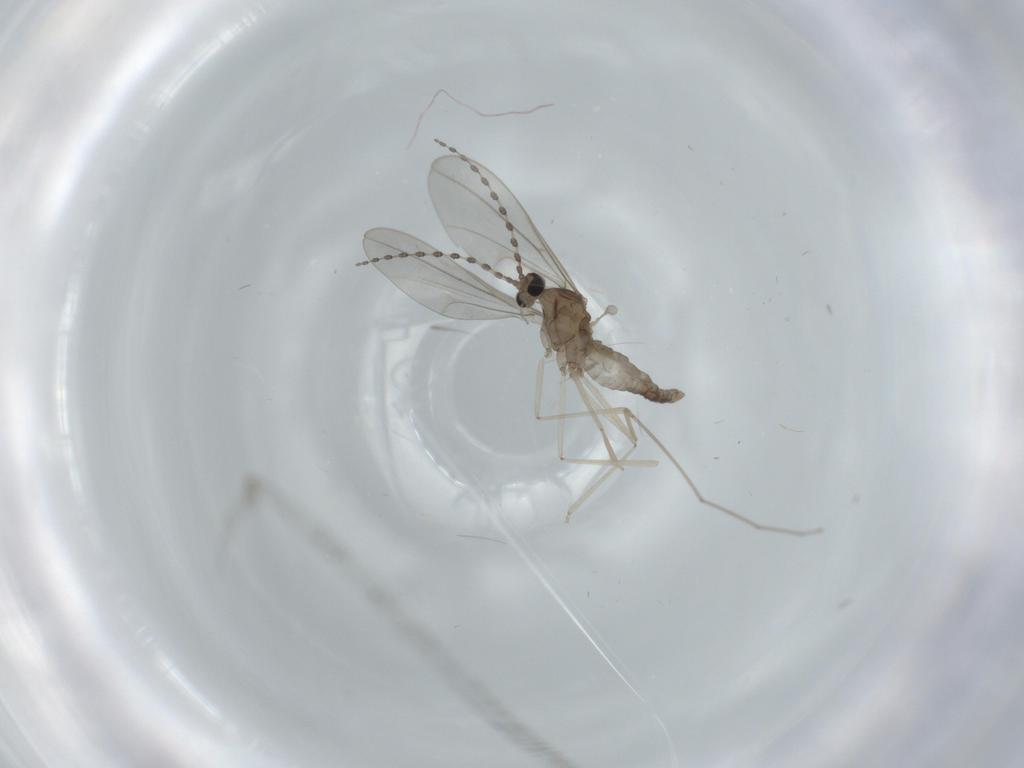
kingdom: Animalia
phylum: Arthropoda
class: Insecta
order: Diptera
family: Cecidomyiidae
